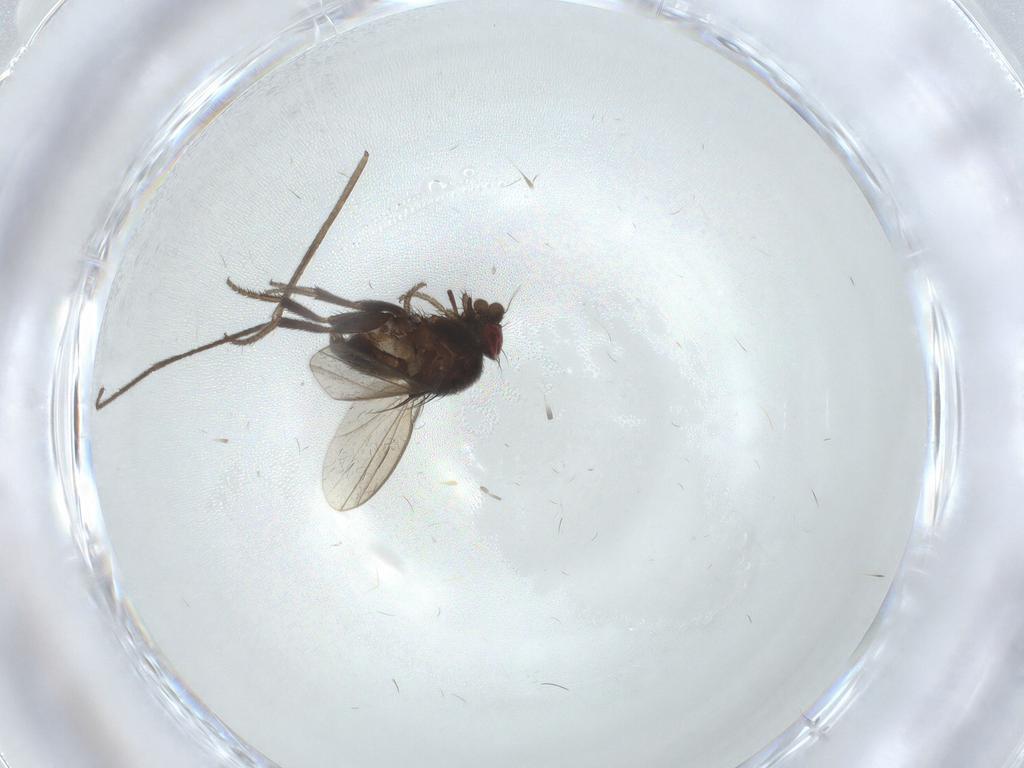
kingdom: Animalia
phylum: Arthropoda
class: Insecta
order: Diptera
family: Milichiidae
